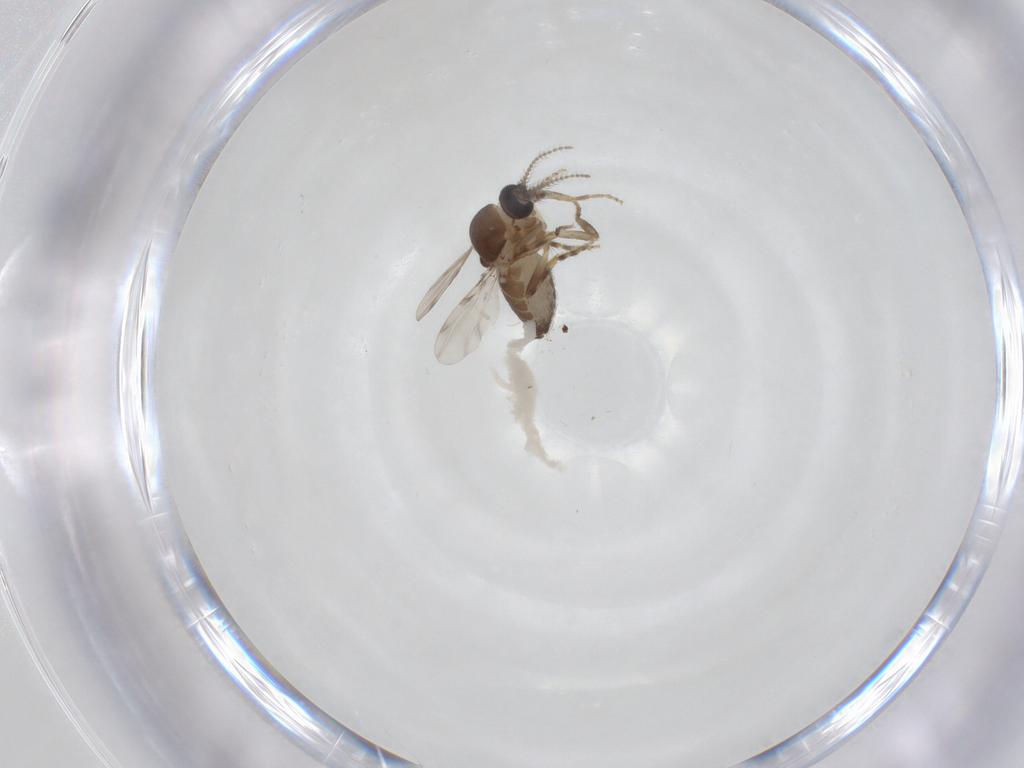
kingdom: Animalia
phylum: Arthropoda
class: Insecta
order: Diptera
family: Ceratopogonidae
